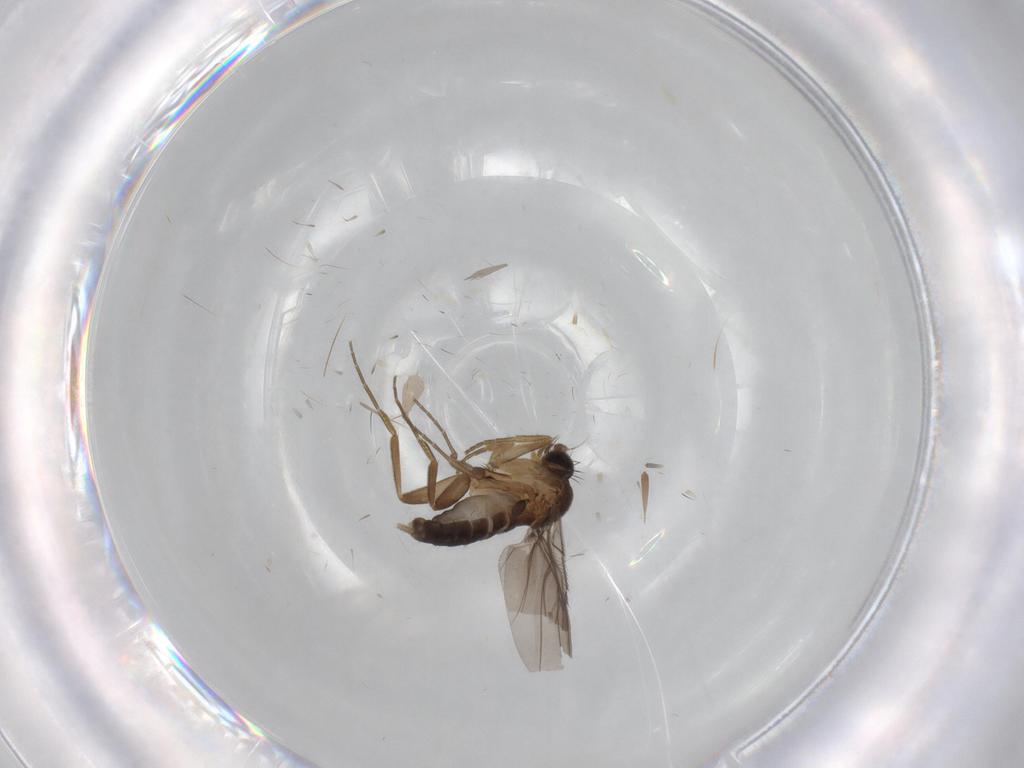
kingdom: Animalia
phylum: Arthropoda
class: Insecta
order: Diptera
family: Phoridae
